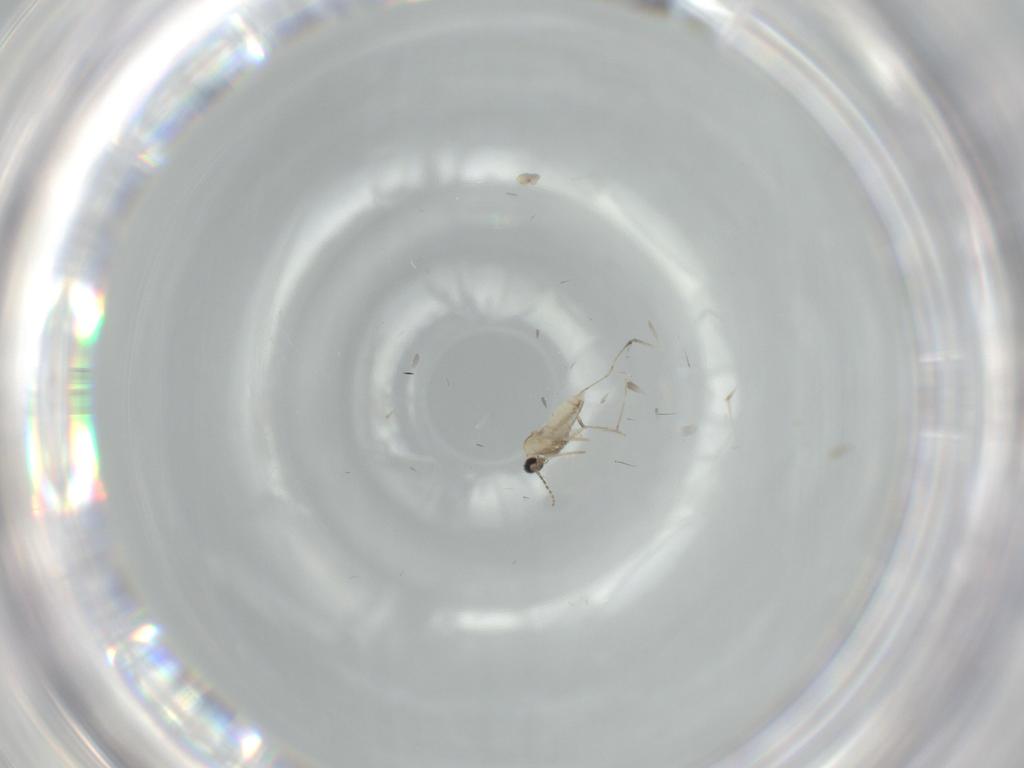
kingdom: Animalia
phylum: Arthropoda
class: Insecta
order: Diptera
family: Cecidomyiidae
